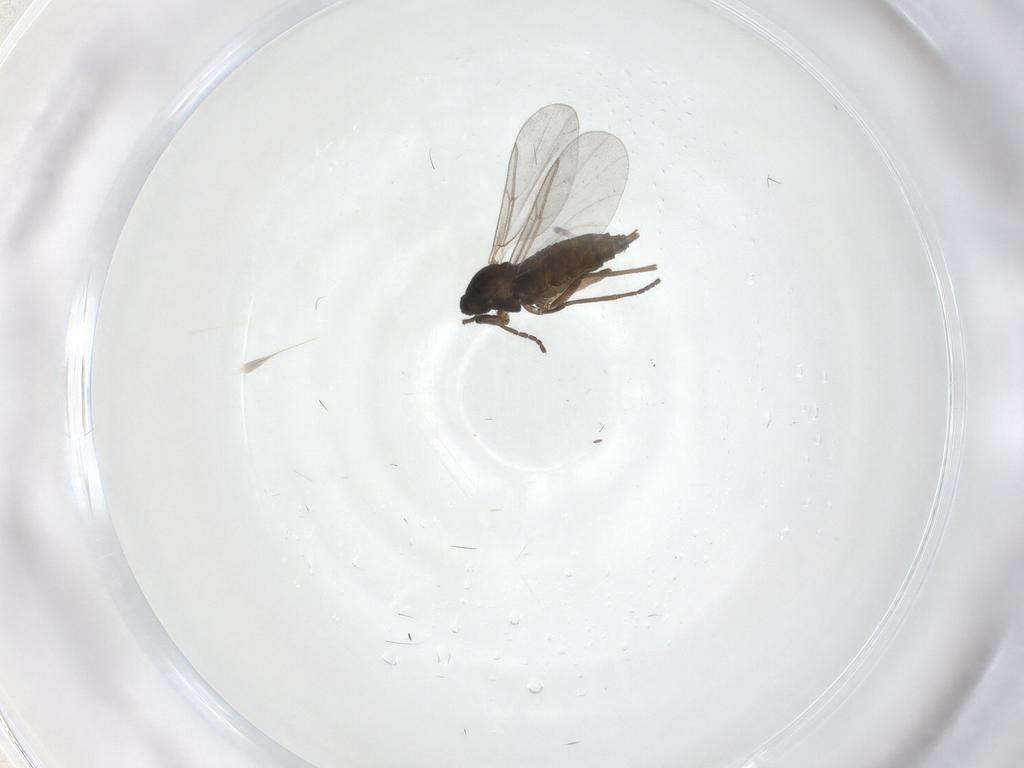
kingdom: Animalia
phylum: Arthropoda
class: Insecta
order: Diptera
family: Cecidomyiidae
